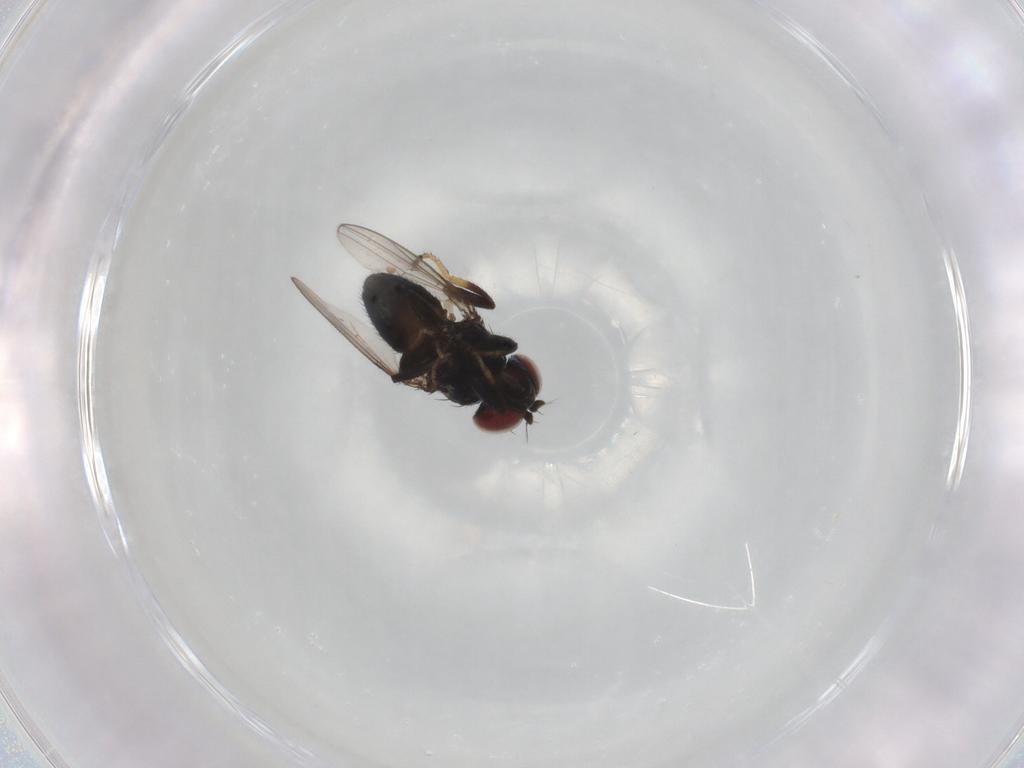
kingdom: Animalia
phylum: Arthropoda
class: Insecta
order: Diptera
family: Ephydridae
